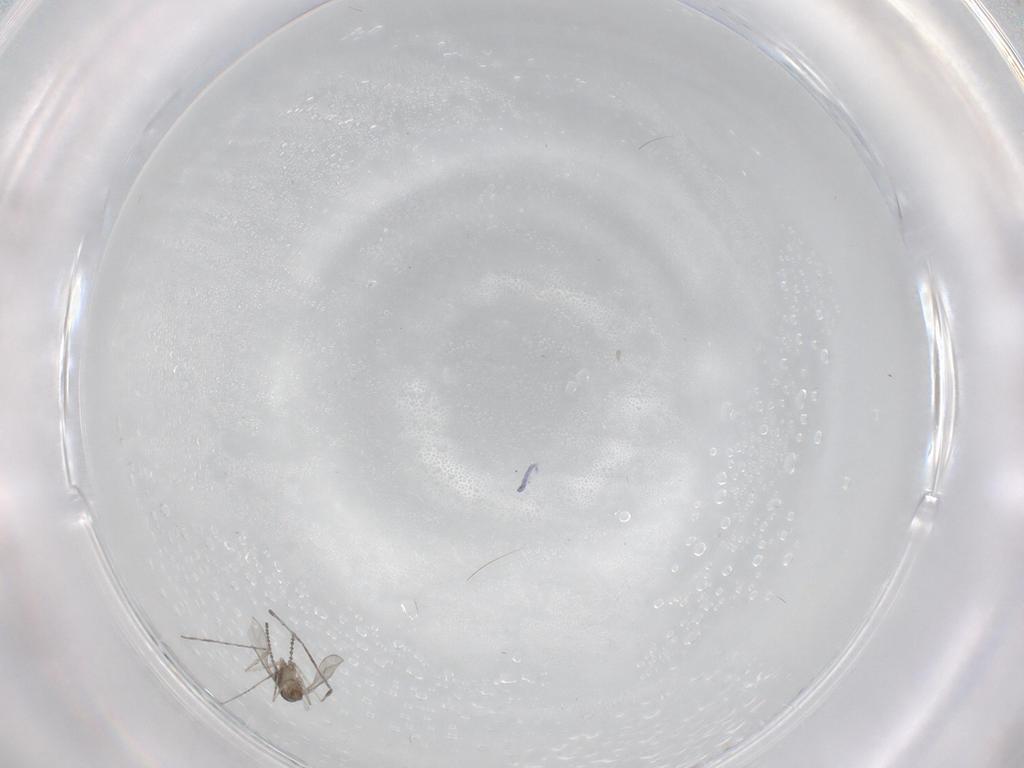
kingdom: Animalia
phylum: Arthropoda
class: Insecta
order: Diptera
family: Cecidomyiidae
